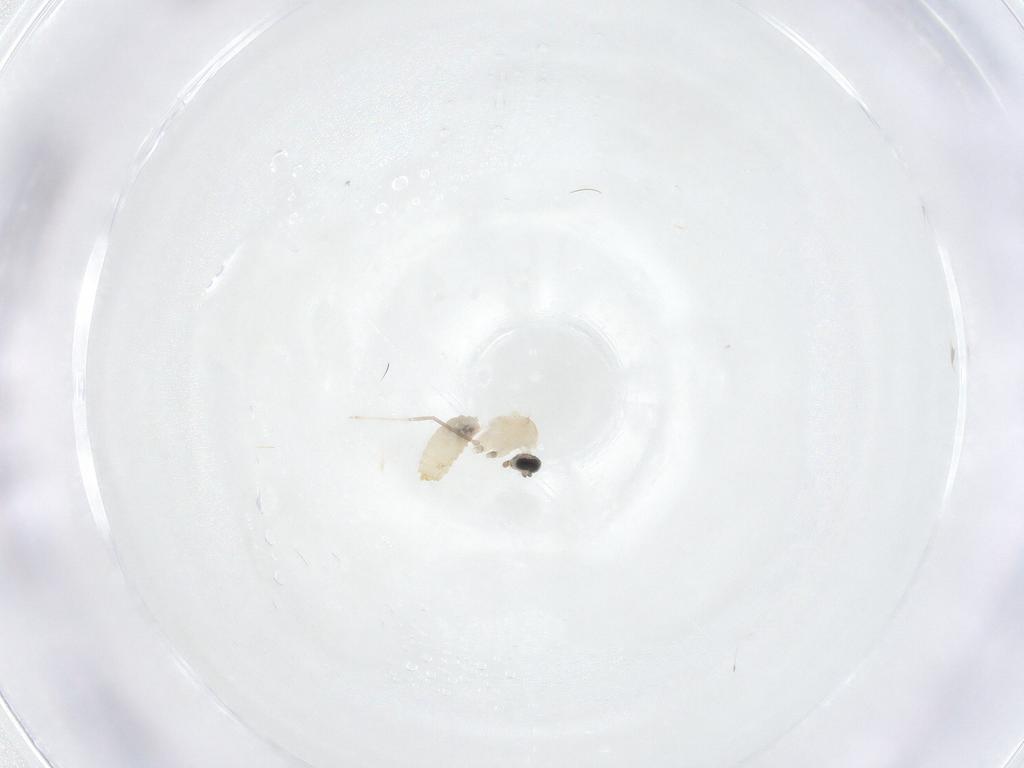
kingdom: Animalia
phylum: Arthropoda
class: Insecta
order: Diptera
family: Cecidomyiidae
